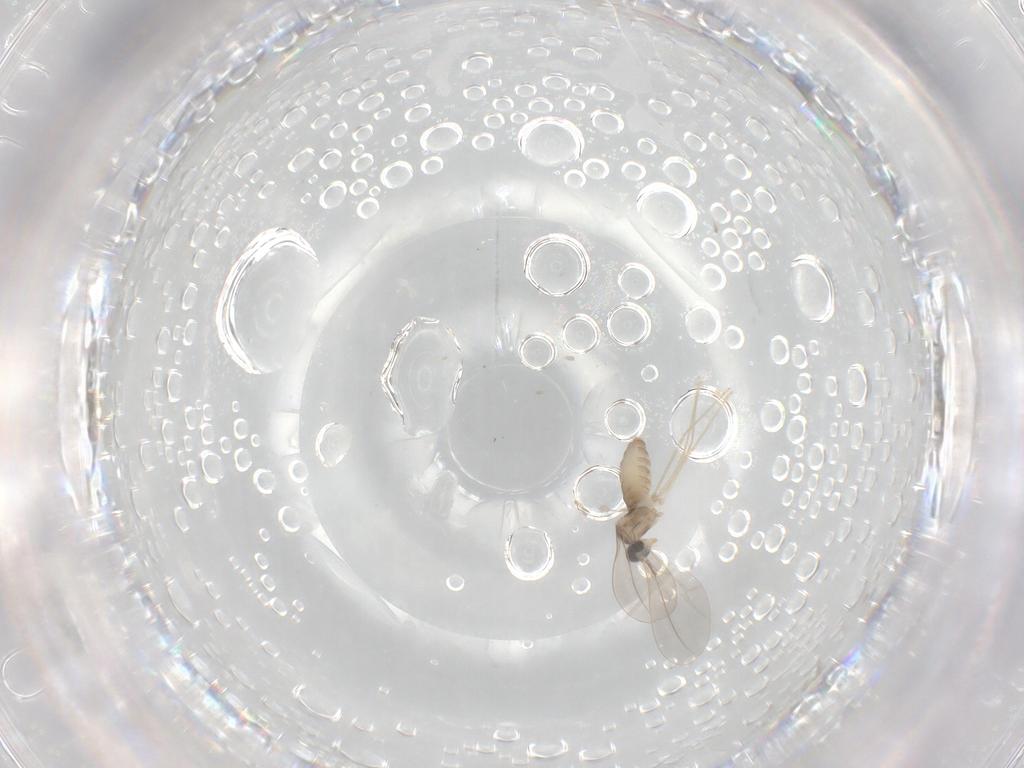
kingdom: Animalia
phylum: Arthropoda
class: Insecta
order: Diptera
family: Cecidomyiidae
